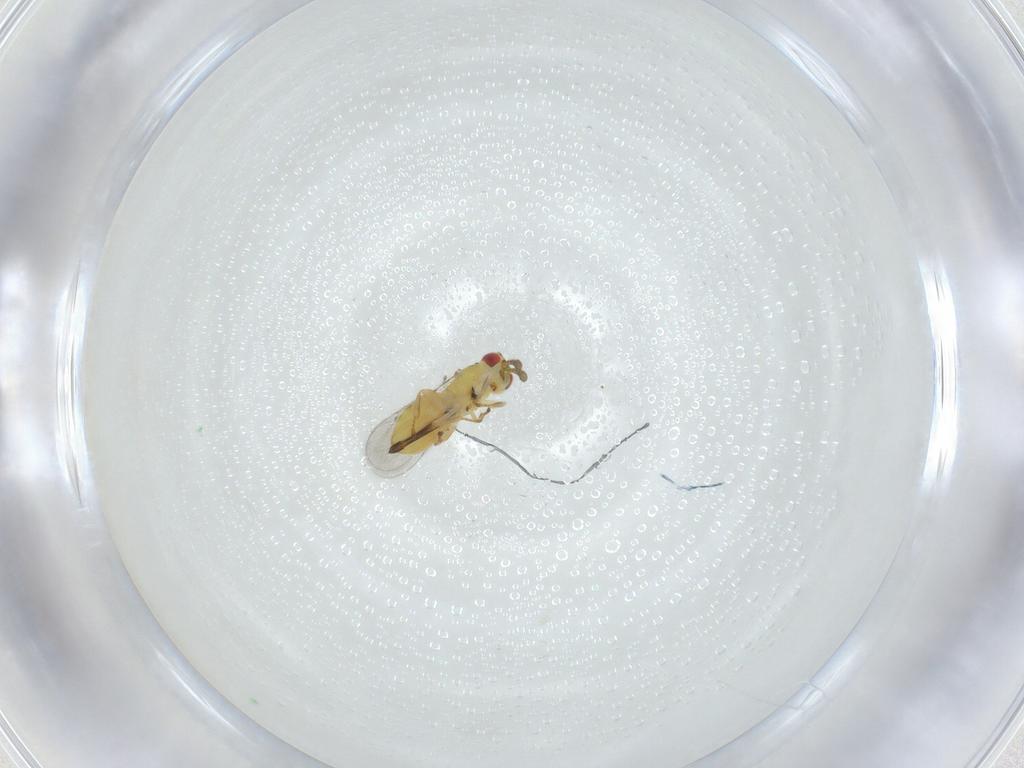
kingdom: Animalia
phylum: Arthropoda
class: Insecta
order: Hymenoptera
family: Eulophidae
